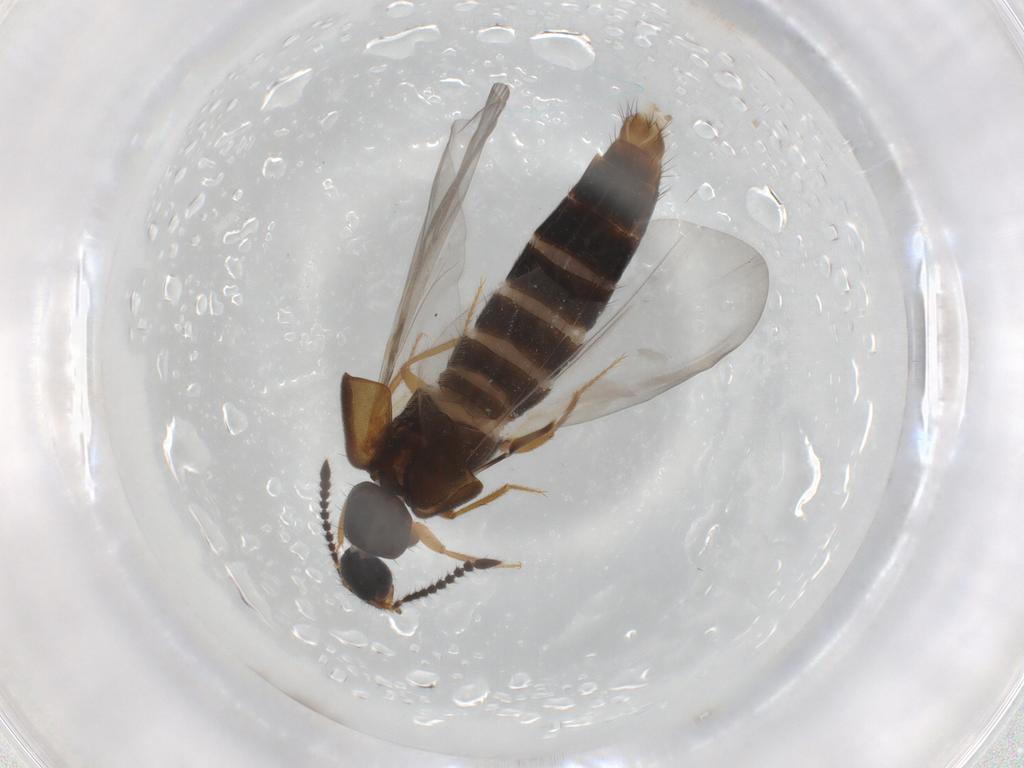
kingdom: Animalia
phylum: Arthropoda
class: Insecta
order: Coleoptera
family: Staphylinidae
